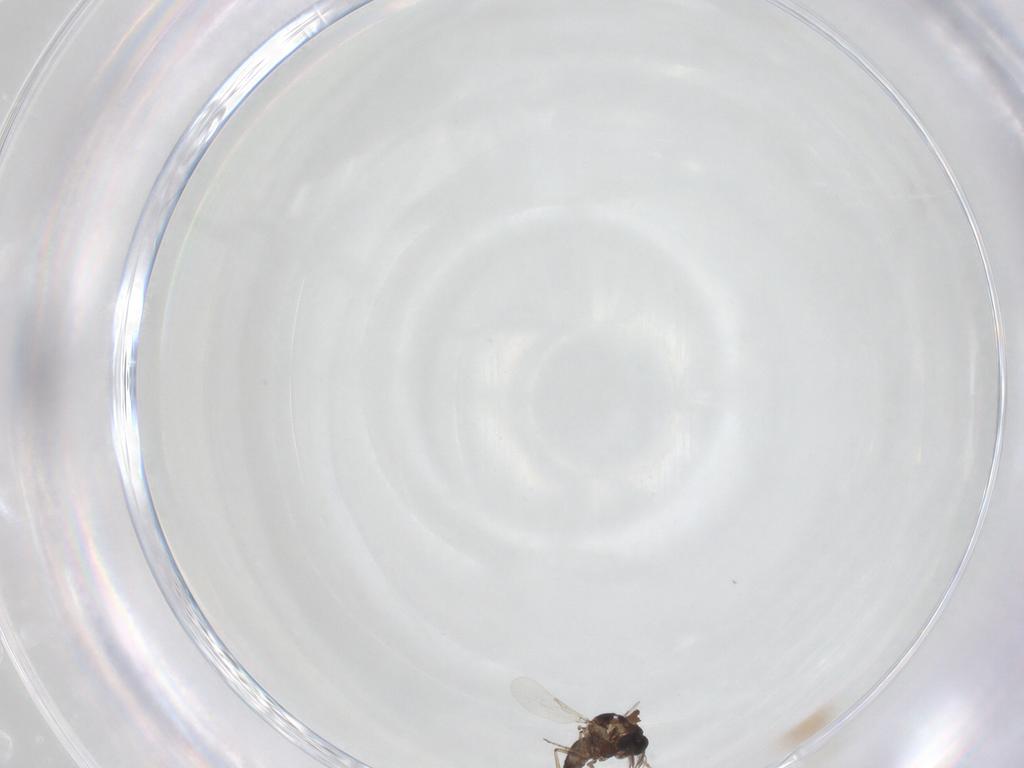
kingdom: Animalia
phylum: Arthropoda
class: Insecta
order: Diptera
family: Ceratopogonidae
